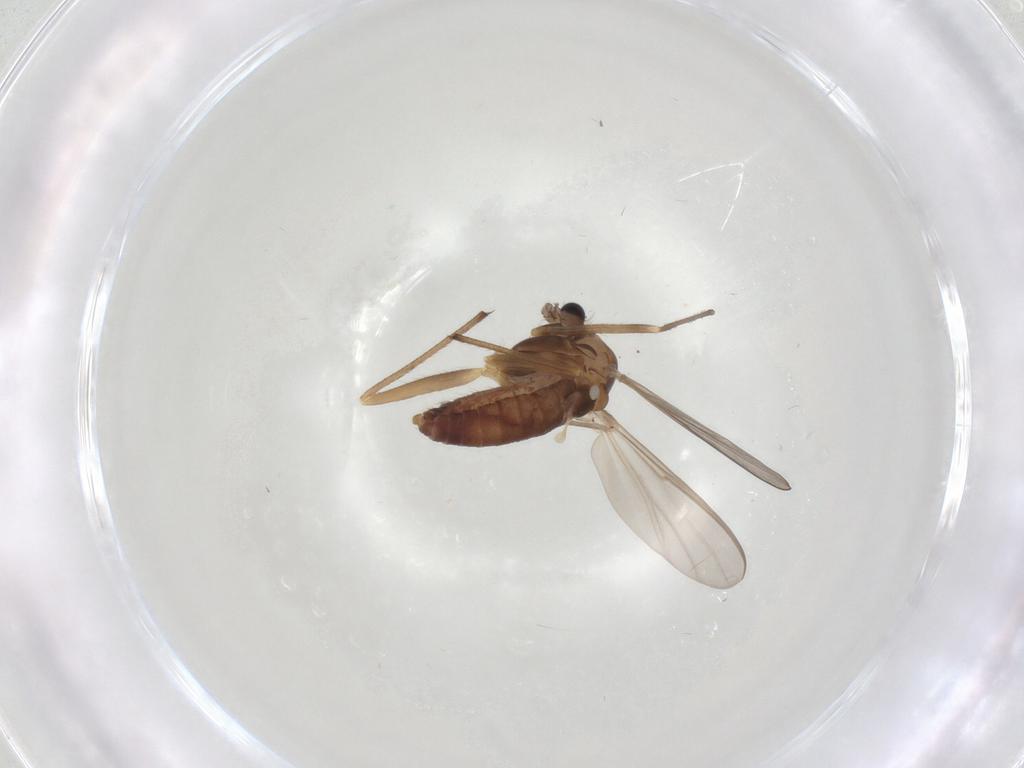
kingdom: Animalia
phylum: Arthropoda
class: Insecta
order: Diptera
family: Chironomidae
